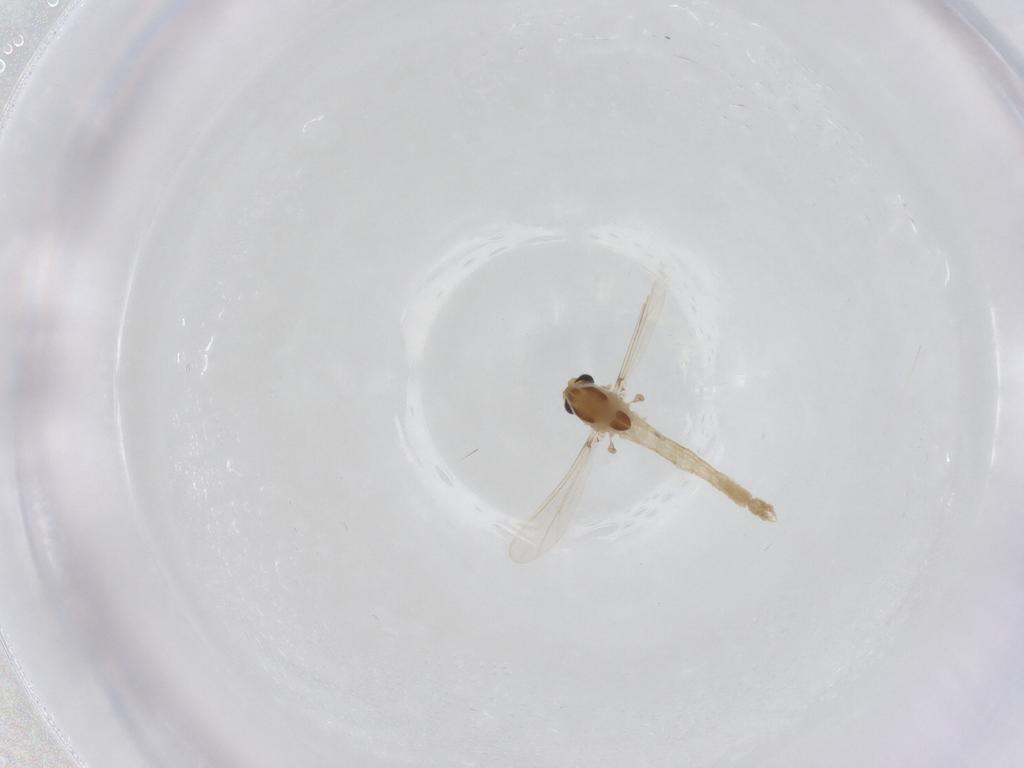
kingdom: Animalia
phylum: Arthropoda
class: Insecta
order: Diptera
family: Chironomidae
